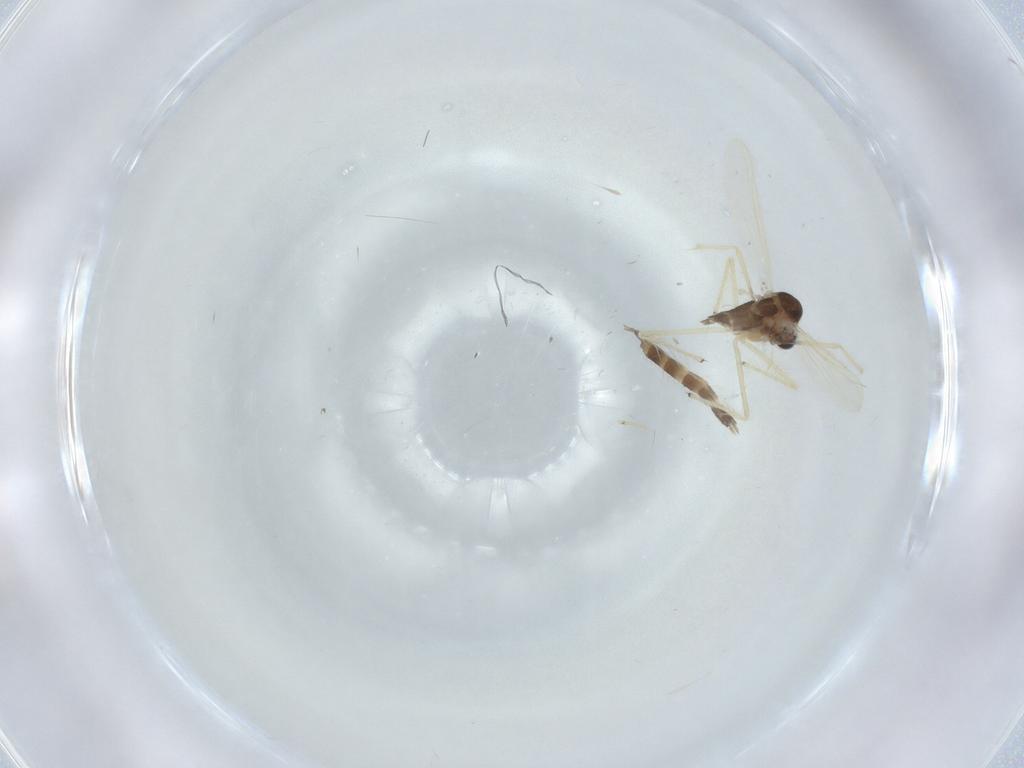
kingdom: Animalia
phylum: Arthropoda
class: Insecta
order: Diptera
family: Chironomidae
